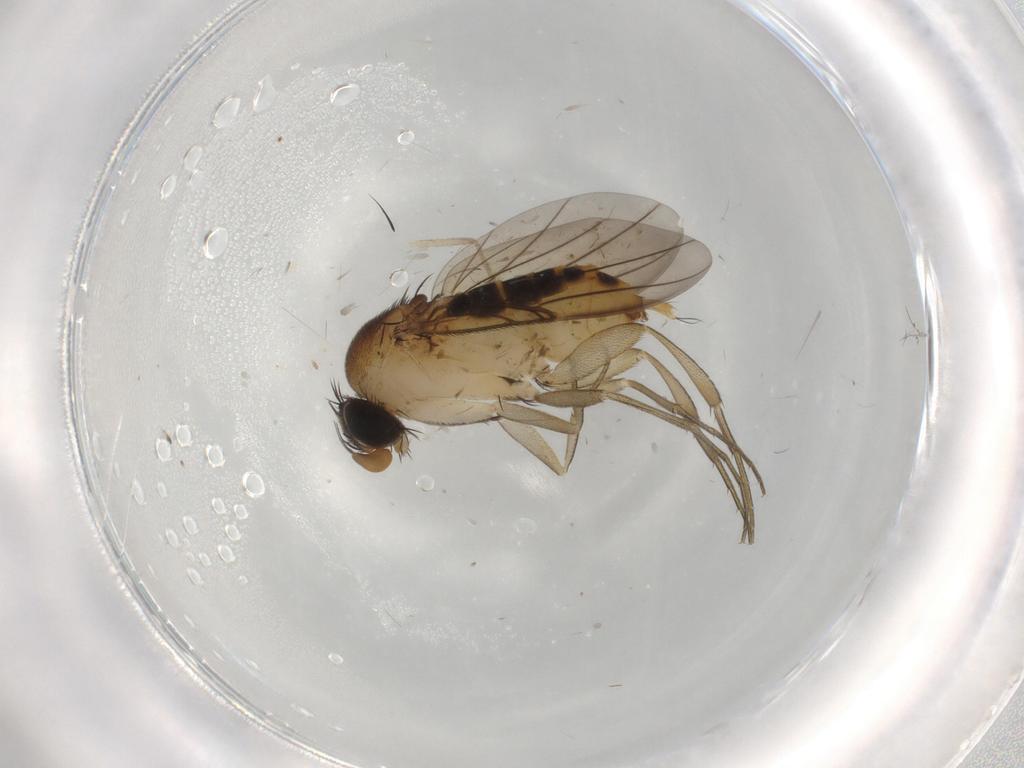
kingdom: Animalia
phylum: Arthropoda
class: Insecta
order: Diptera
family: Phoridae
